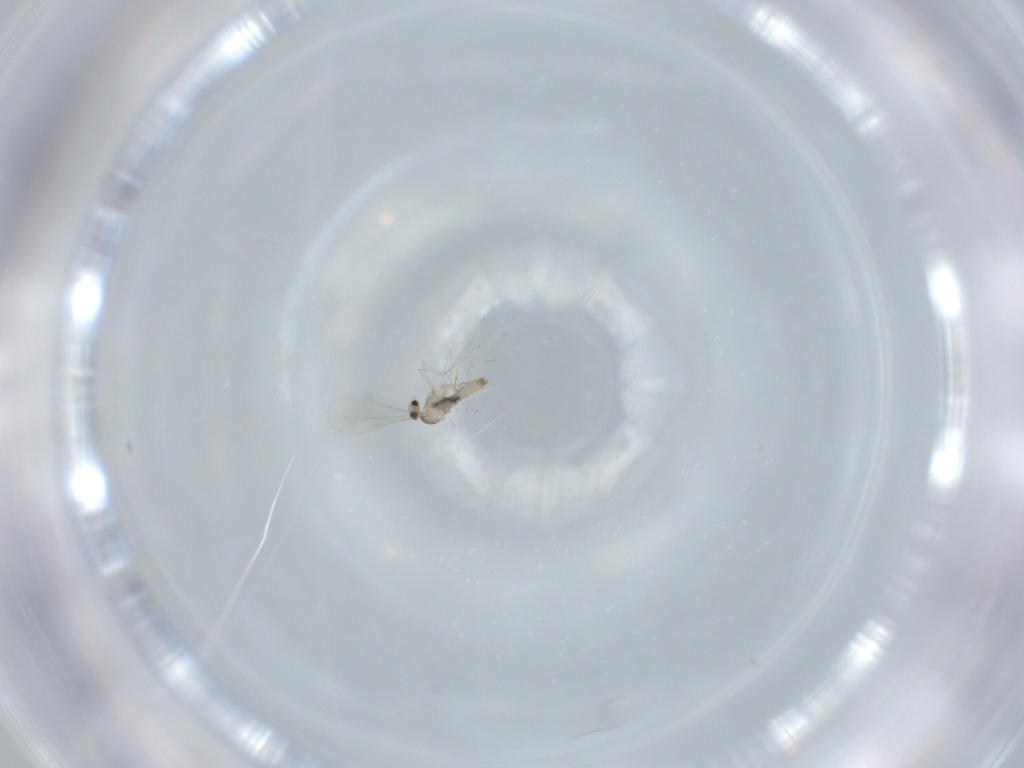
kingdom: Animalia
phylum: Arthropoda
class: Insecta
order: Diptera
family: Cecidomyiidae
